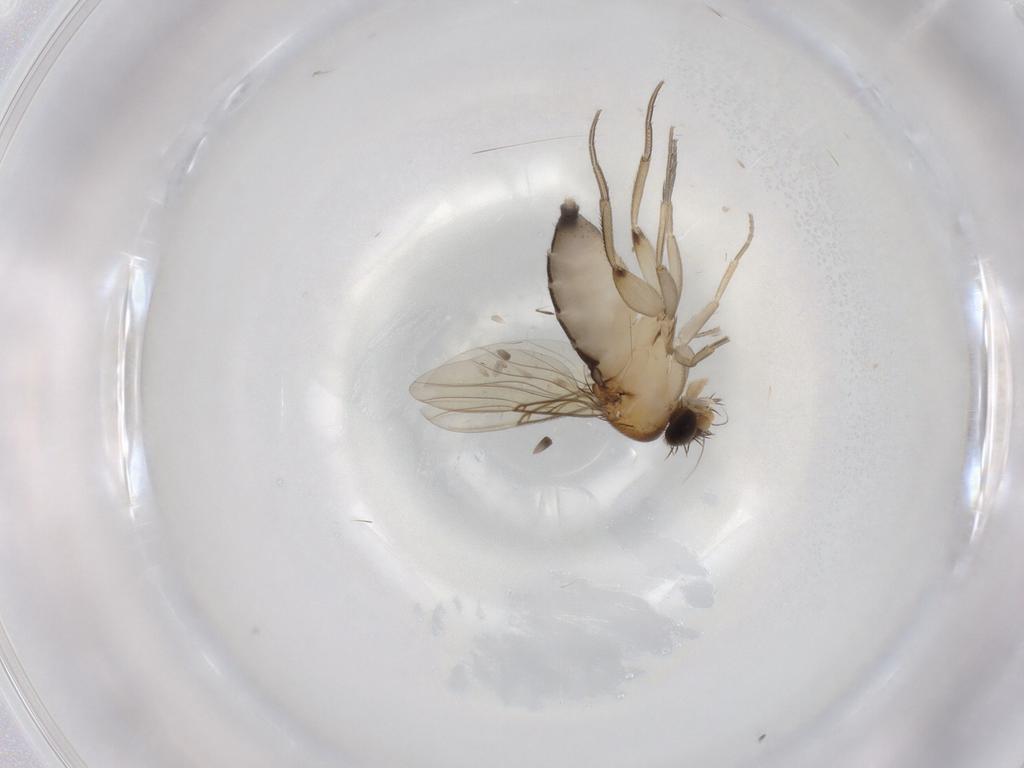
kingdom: Animalia
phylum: Arthropoda
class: Insecta
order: Diptera
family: Phoridae
